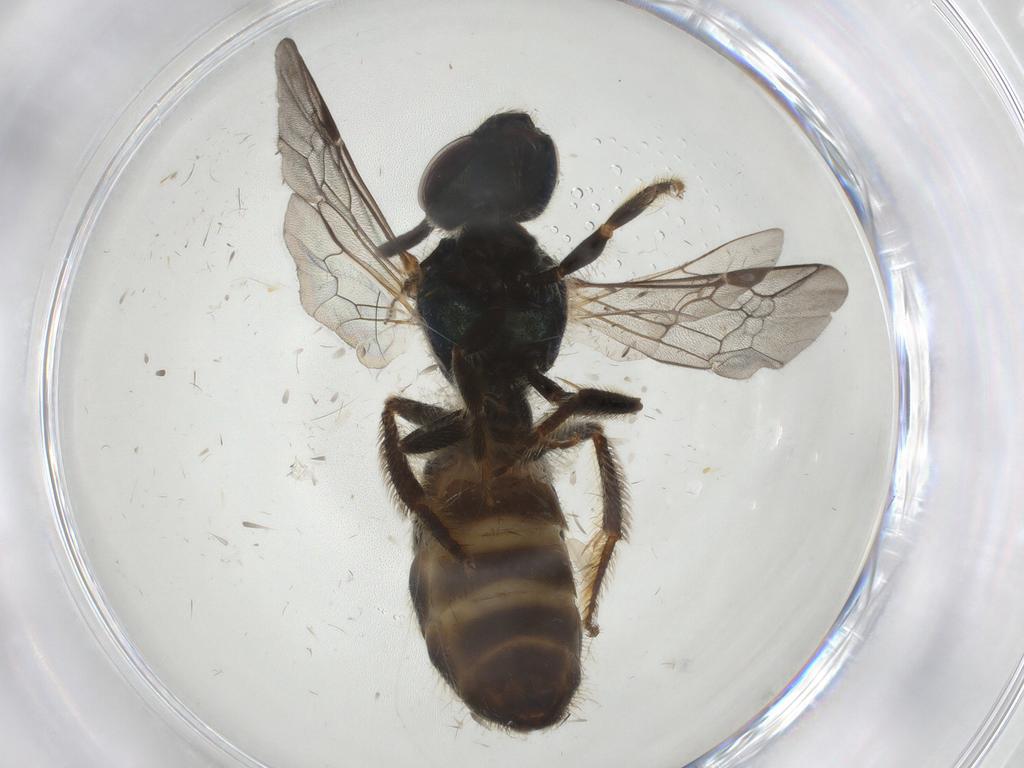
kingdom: Animalia
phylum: Arthropoda
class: Insecta
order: Hymenoptera
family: Halictidae
